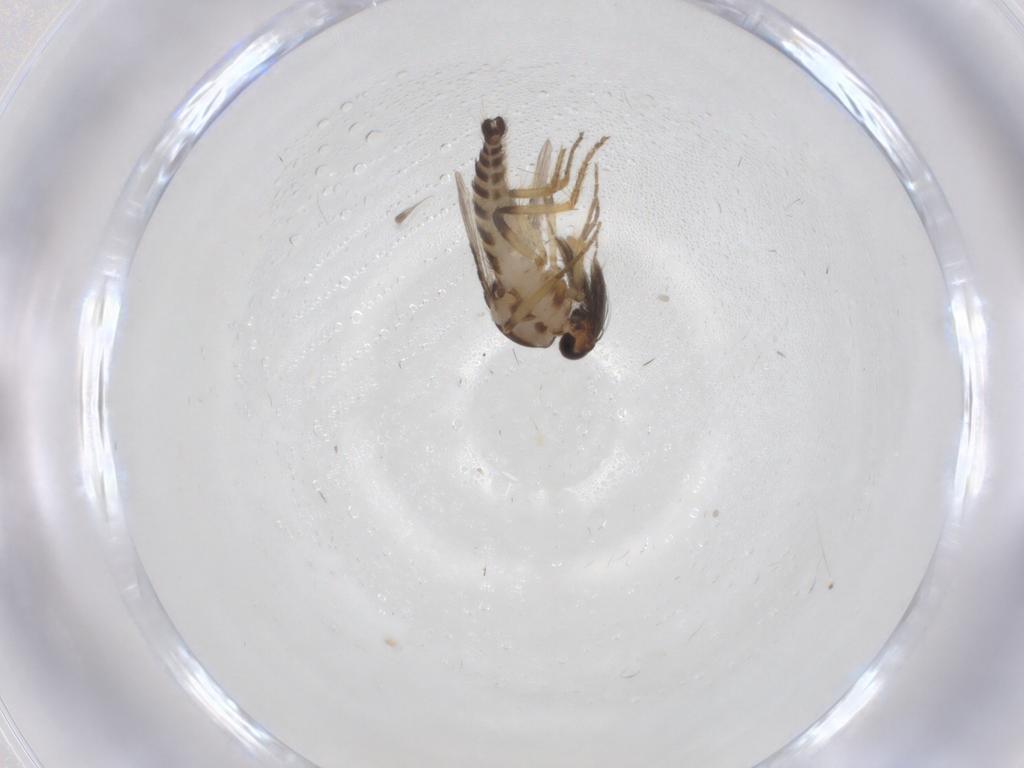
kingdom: Animalia
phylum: Arthropoda
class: Insecta
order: Diptera
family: Ceratopogonidae
